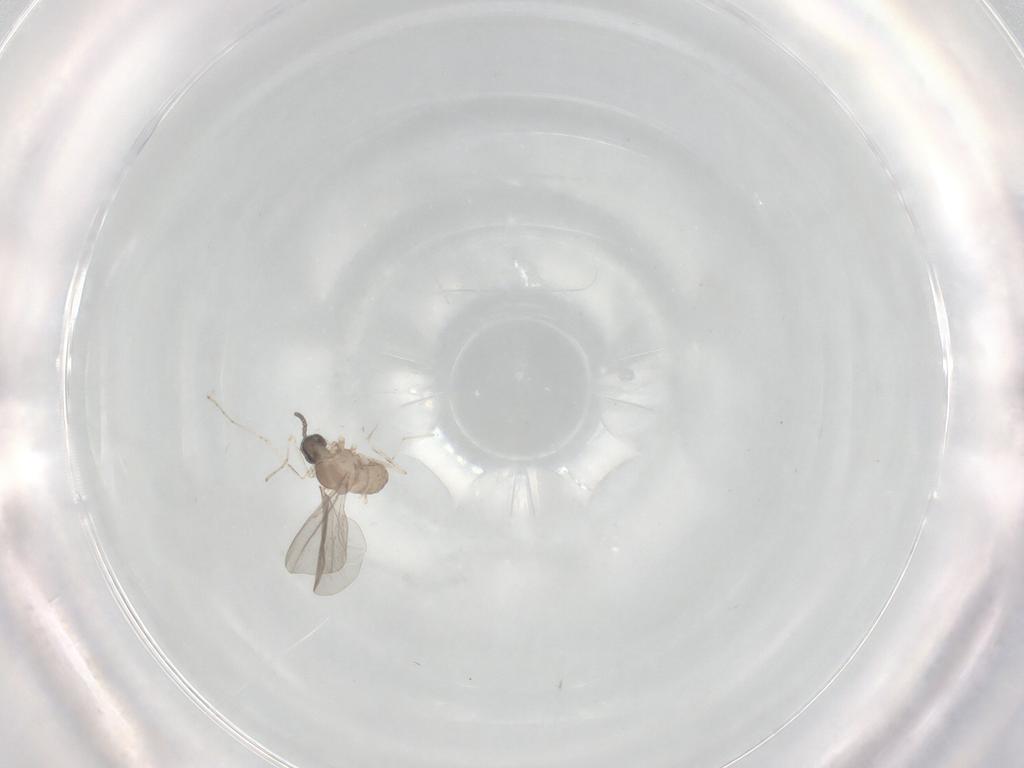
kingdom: Animalia
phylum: Arthropoda
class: Insecta
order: Diptera
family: Cecidomyiidae
